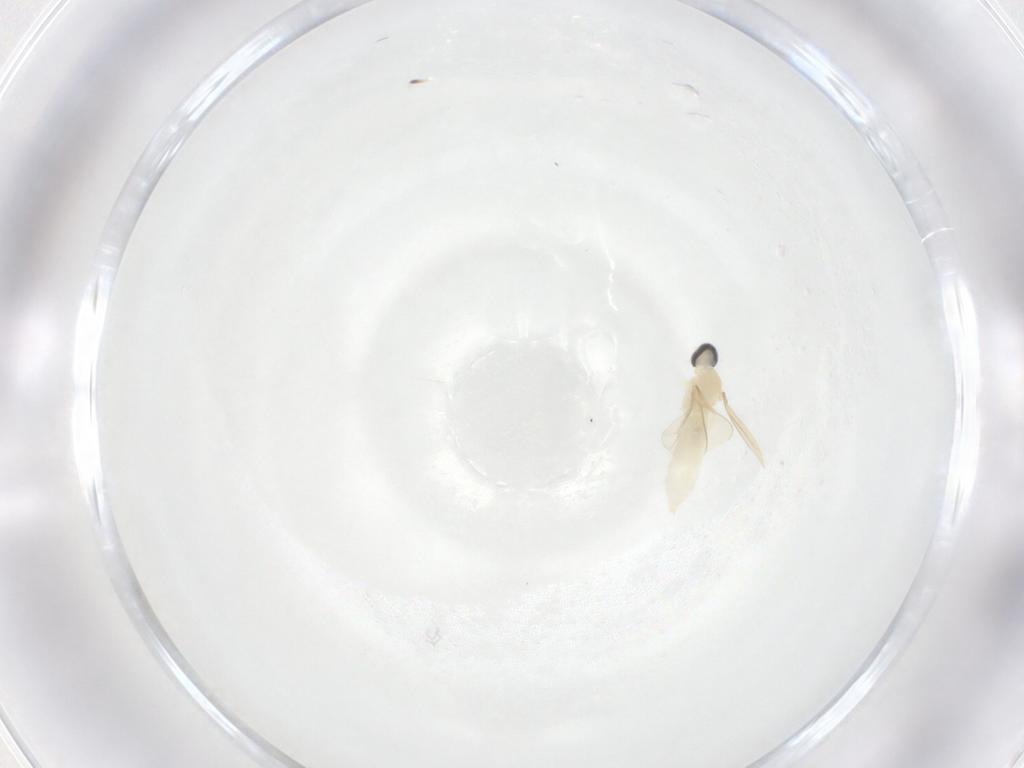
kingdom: Animalia
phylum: Arthropoda
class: Insecta
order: Diptera
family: Cecidomyiidae
